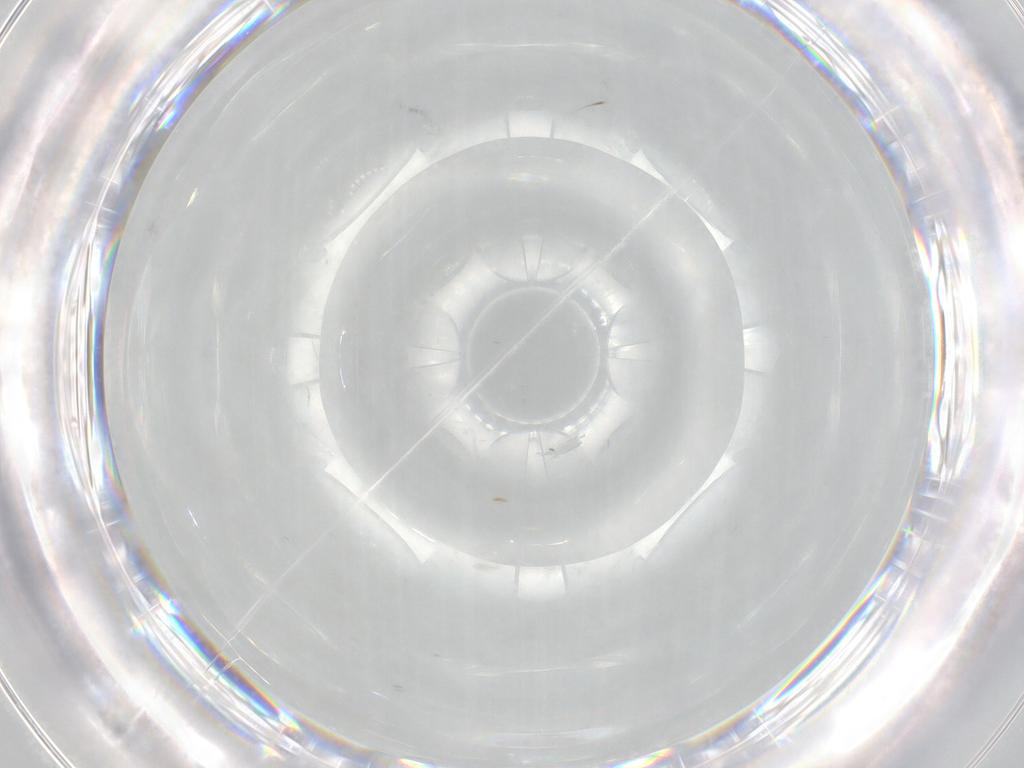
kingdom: Animalia
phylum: Arthropoda
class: Insecta
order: Diptera
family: Cecidomyiidae
